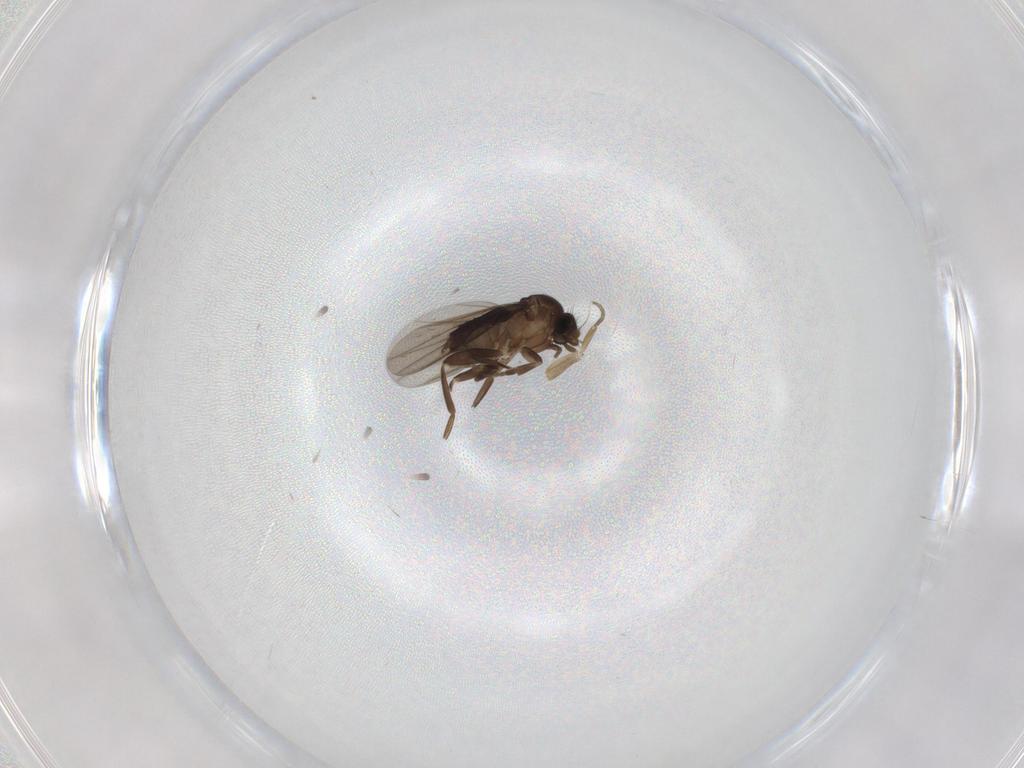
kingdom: Animalia
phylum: Arthropoda
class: Insecta
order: Diptera
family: Phoridae
